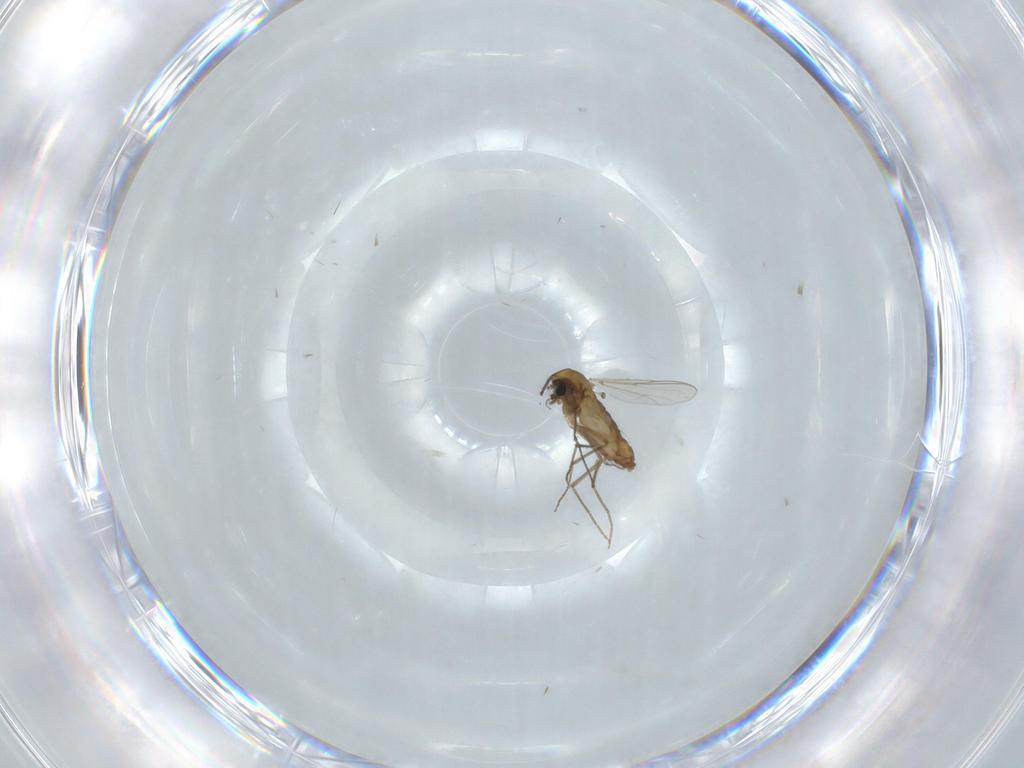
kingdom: Animalia
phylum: Arthropoda
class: Insecta
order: Diptera
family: Chironomidae
